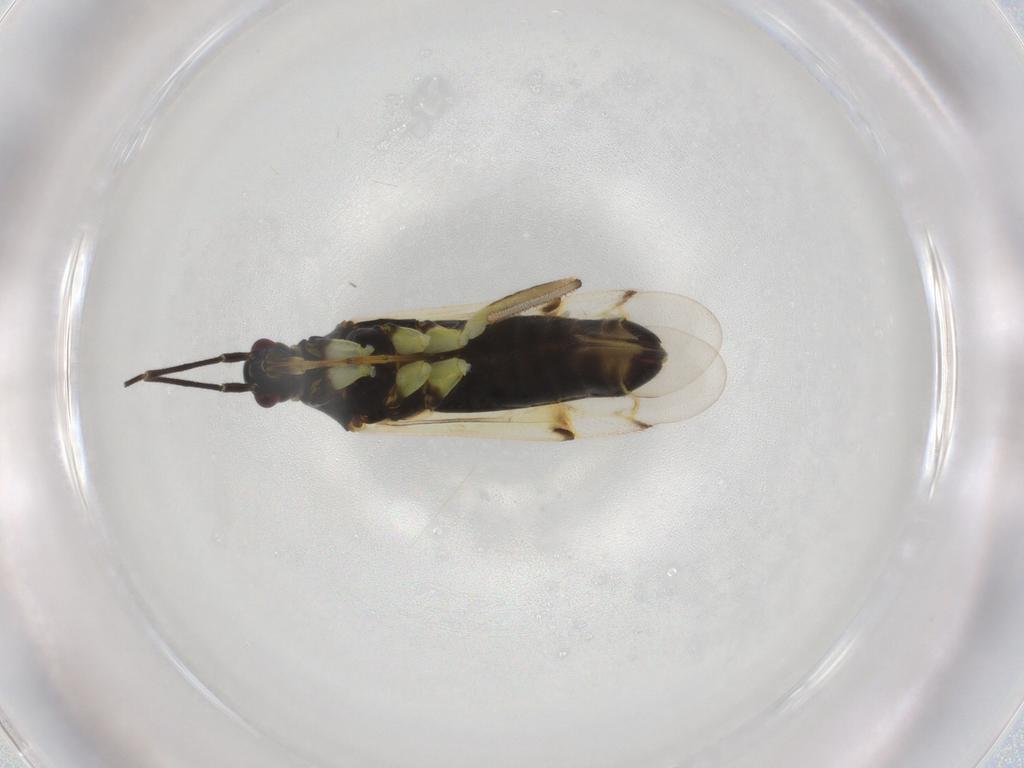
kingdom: Animalia
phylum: Arthropoda
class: Insecta
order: Hemiptera
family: Miridae
